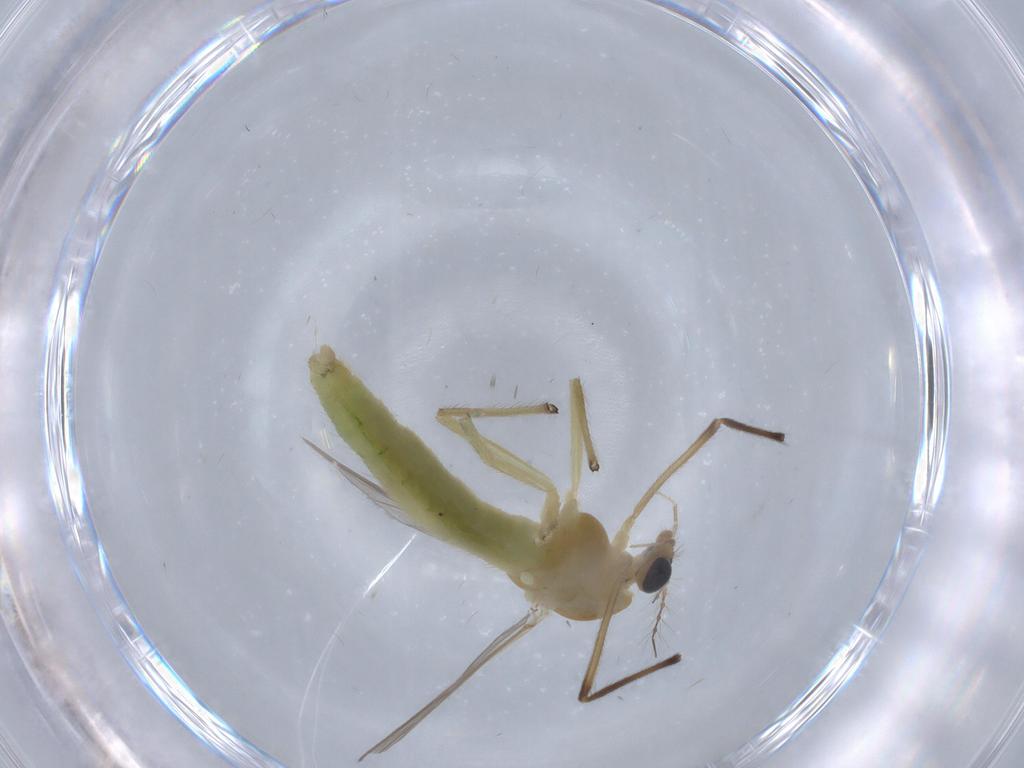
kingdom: Animalia
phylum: Arthropoda
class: Insecta
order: Diptera
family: Chironomidae
